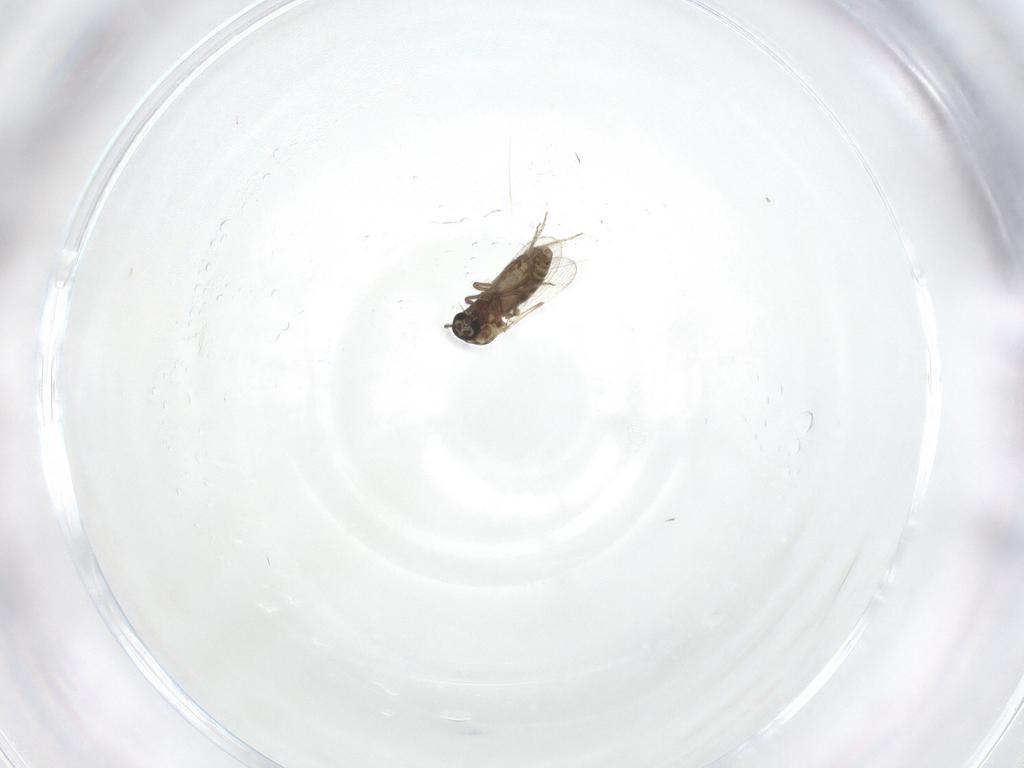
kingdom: Animalia
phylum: Arthropoda
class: Insecta
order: Diptera
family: Ceratopogonidae
